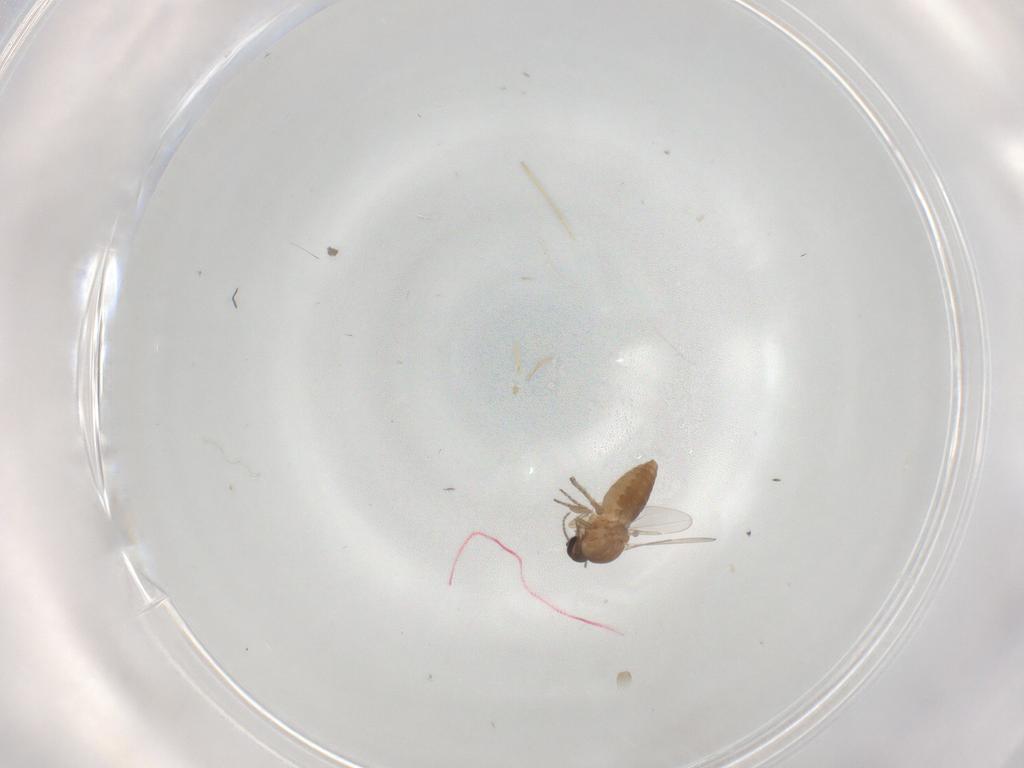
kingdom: Animalia
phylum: Arthropoda
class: Insecta
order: Diptera
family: Ceratopogonidae
